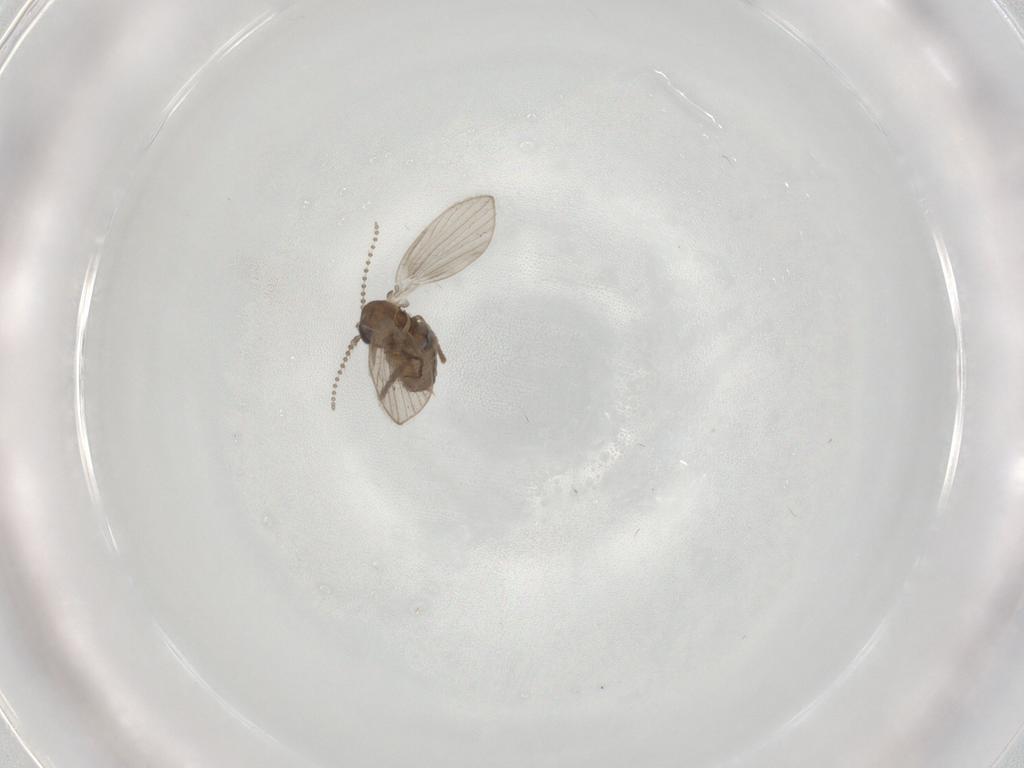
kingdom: Animalia
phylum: Arthropoda
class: Insecta
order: Diptera
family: Psychodidae
